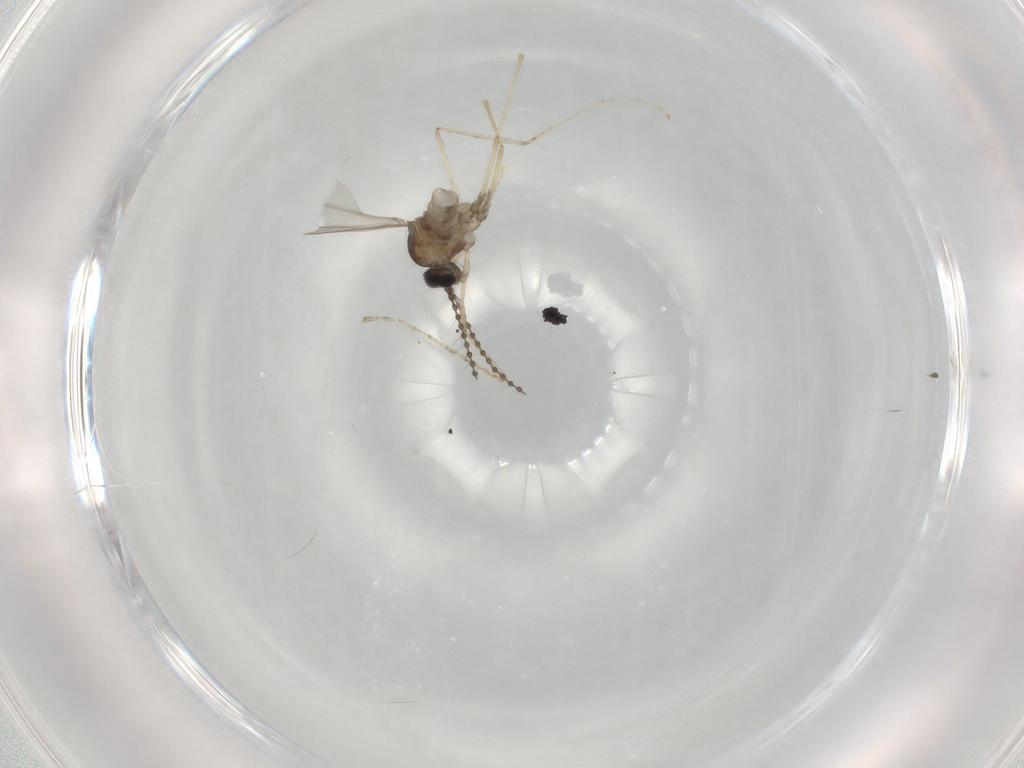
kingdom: Animalia
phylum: Arthropoda
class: Insecta
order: Diptera
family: Cecidomyiidae
